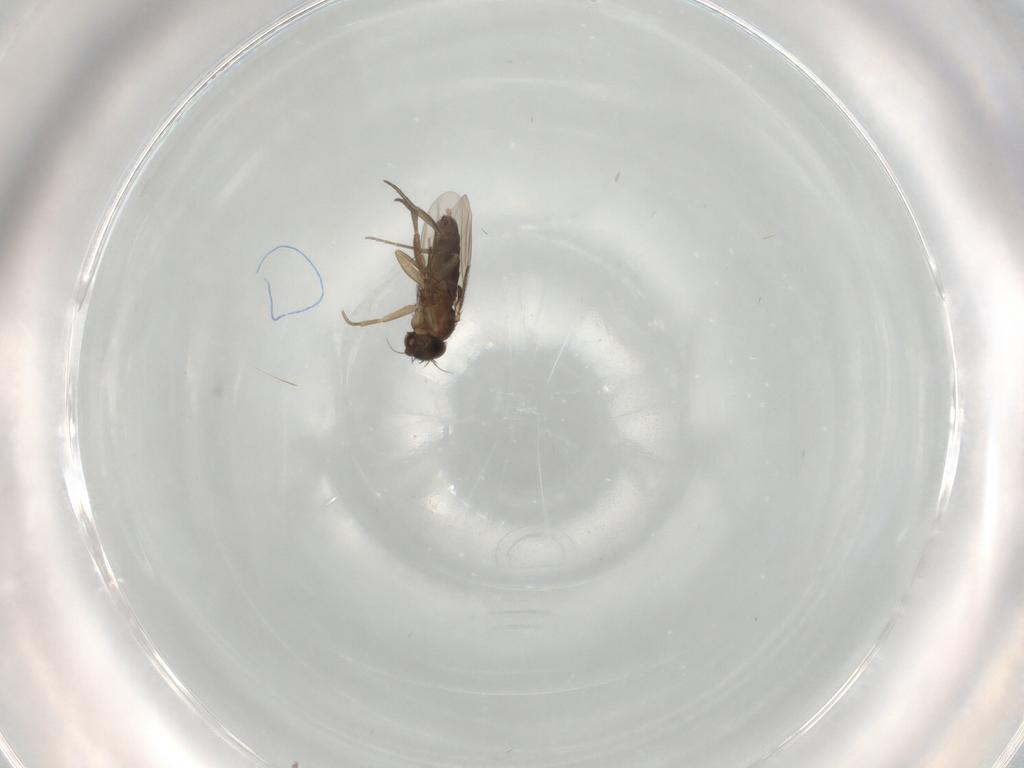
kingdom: Animalia
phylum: Arthropoda
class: Insecta
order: Diptera
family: Phoridae
